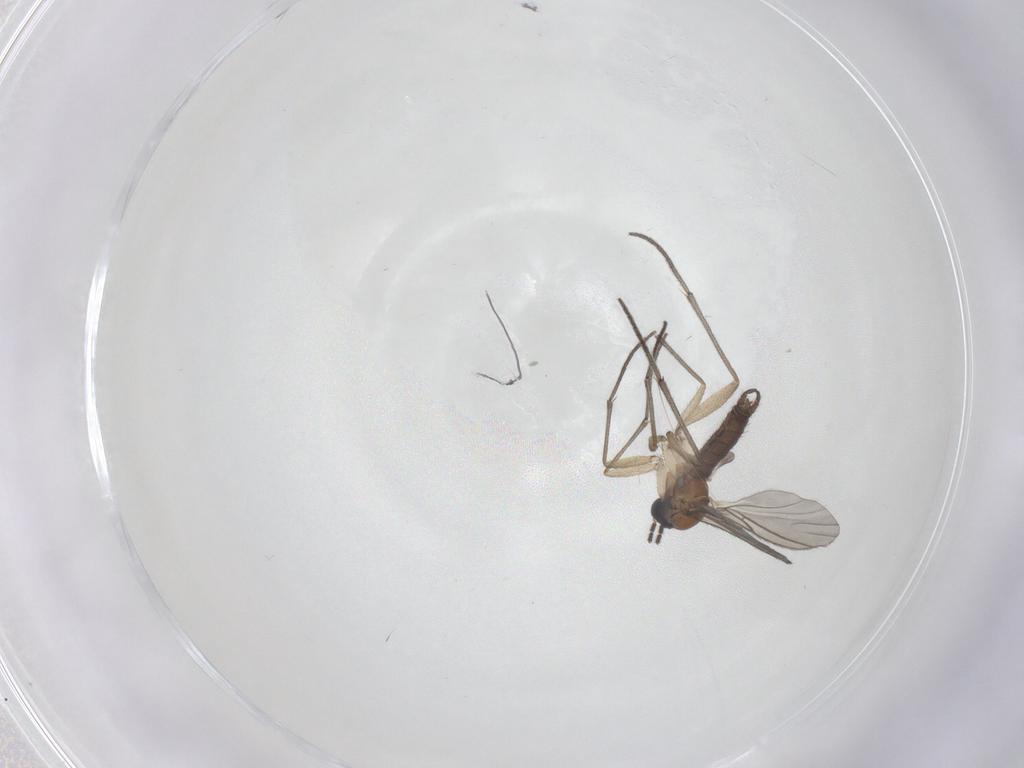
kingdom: Animalia
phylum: Arthropoda
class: Insecta
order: Diptera
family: Sciaridae
